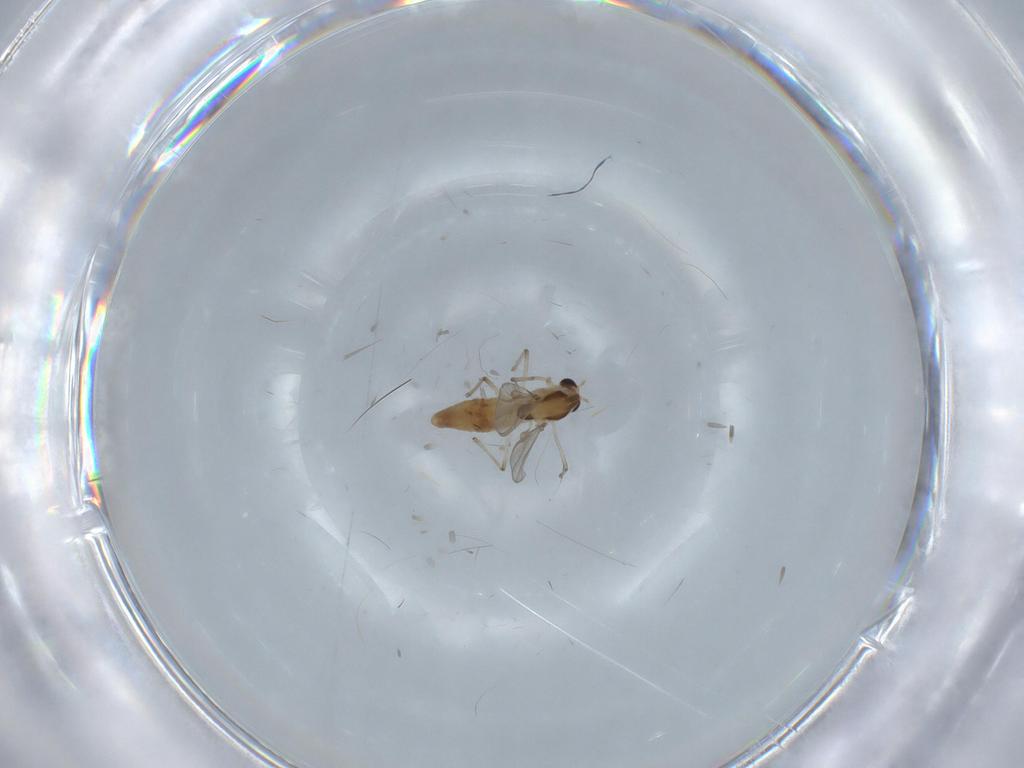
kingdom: Animalia
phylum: Arthropoda
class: Insecta
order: Diptera
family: Chironomidae
